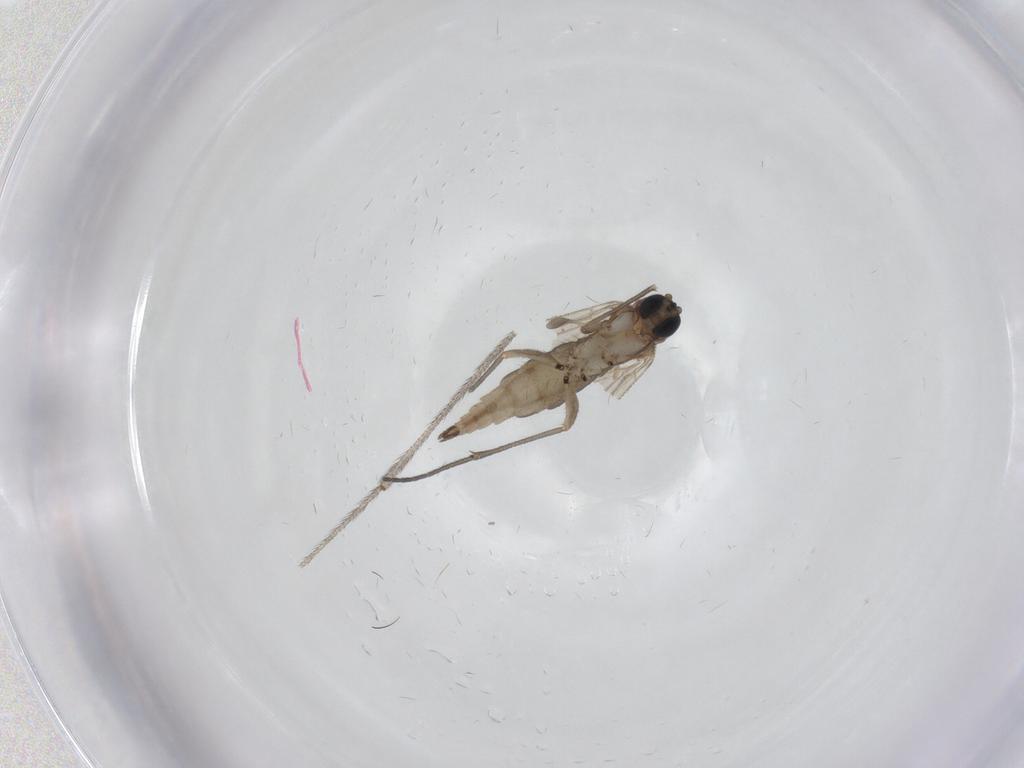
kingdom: Animalia
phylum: Arthropoda
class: Insecta
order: Diptera
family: Sciaridae
